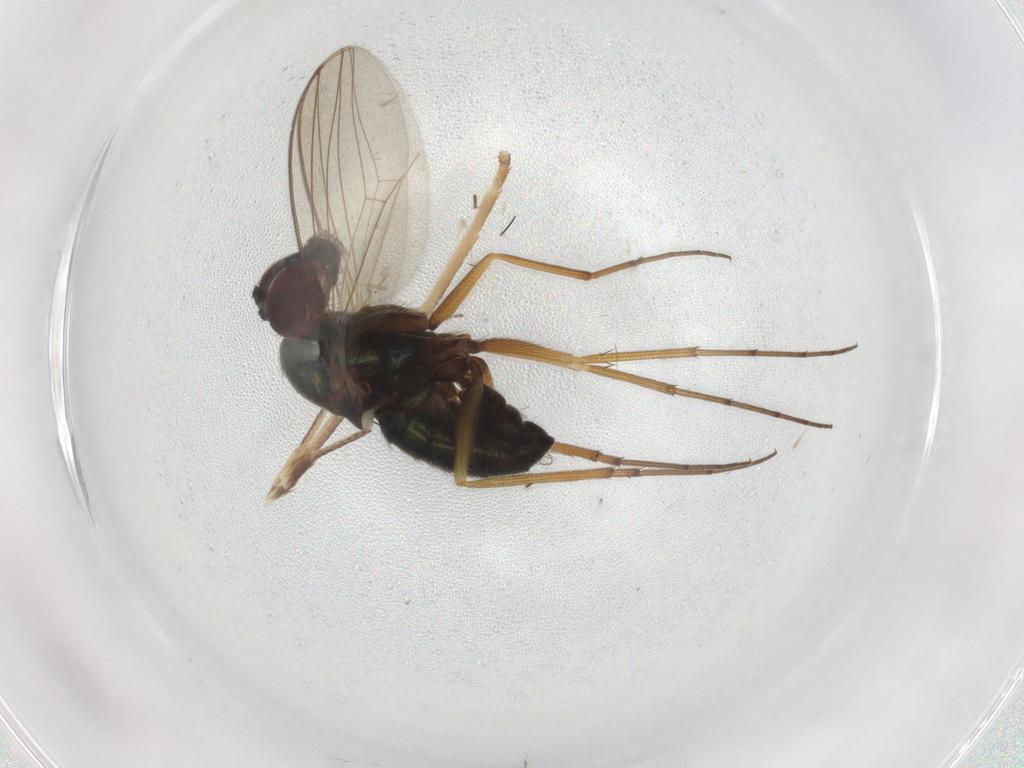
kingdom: Animalia
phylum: Arthropoda
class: Insecta
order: Diptera
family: Dolichopodidae
